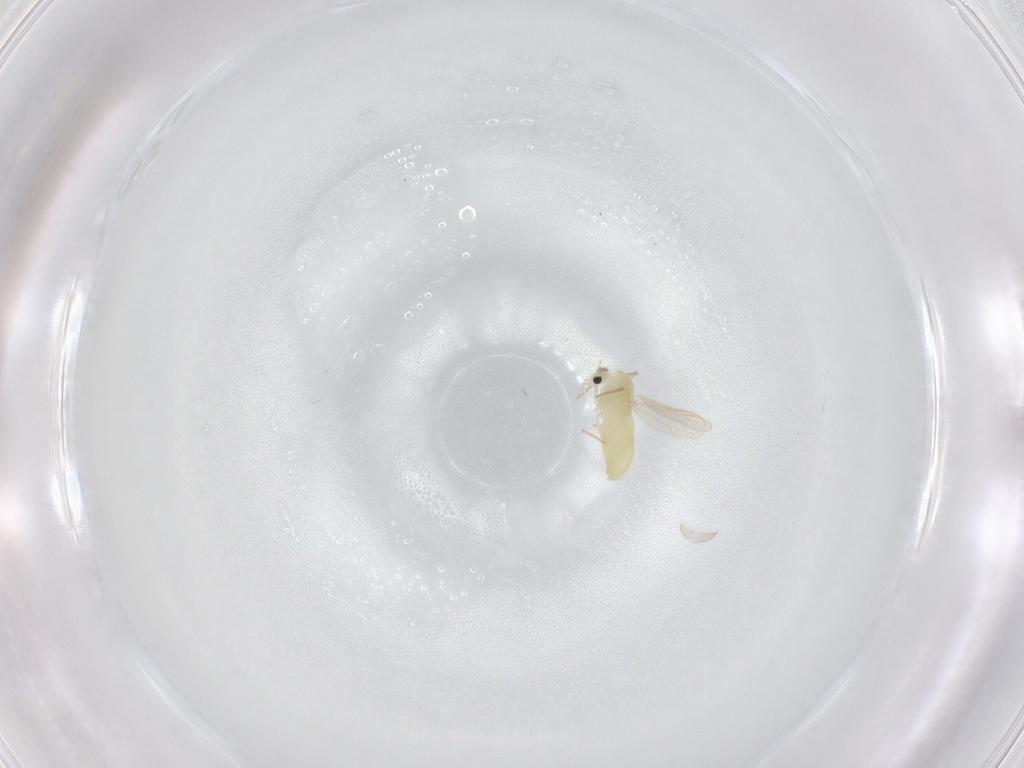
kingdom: Animalia
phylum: Arthropoda
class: Insecta
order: Diptera
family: Chironomidae
